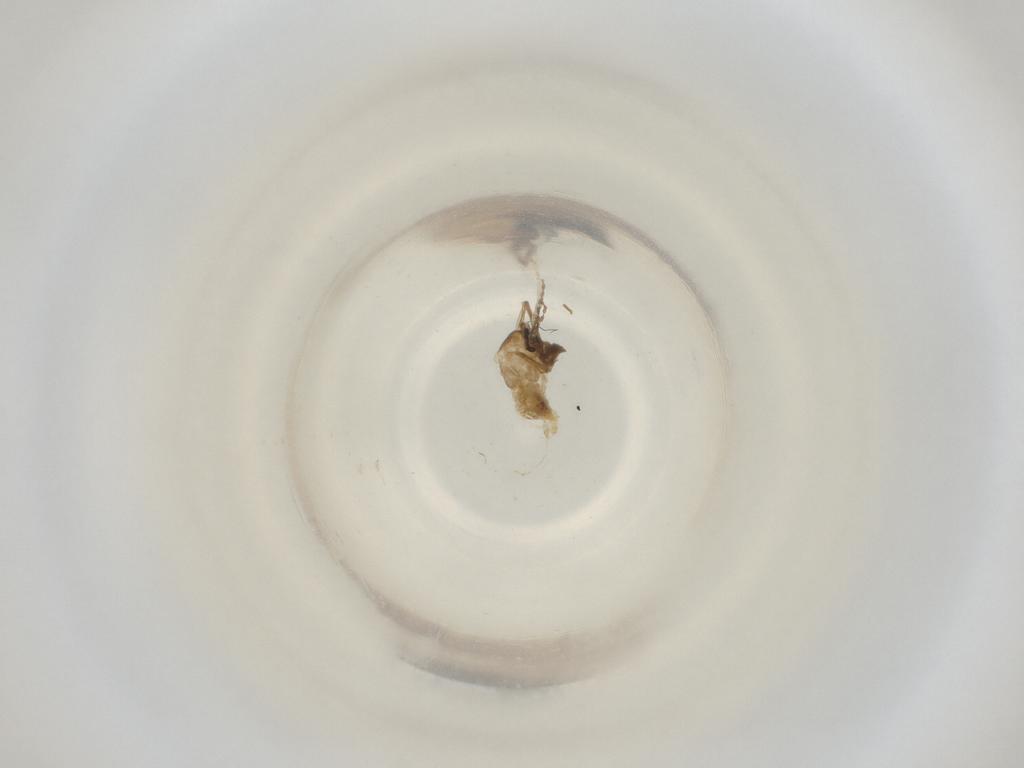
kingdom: Animalia
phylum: Arthropoda
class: Insecta
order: Diptera
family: Cecidomyiidae
